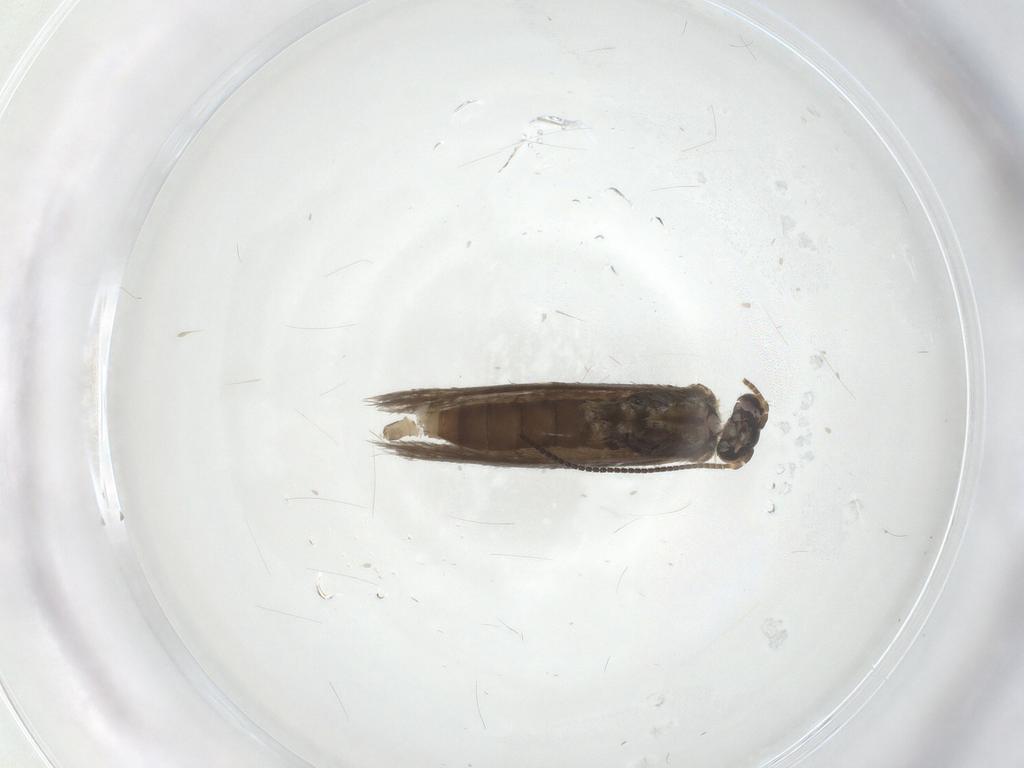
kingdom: Animalia
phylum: Arthropoda
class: Insecta
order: Lepidoptera
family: Micropterigidae
